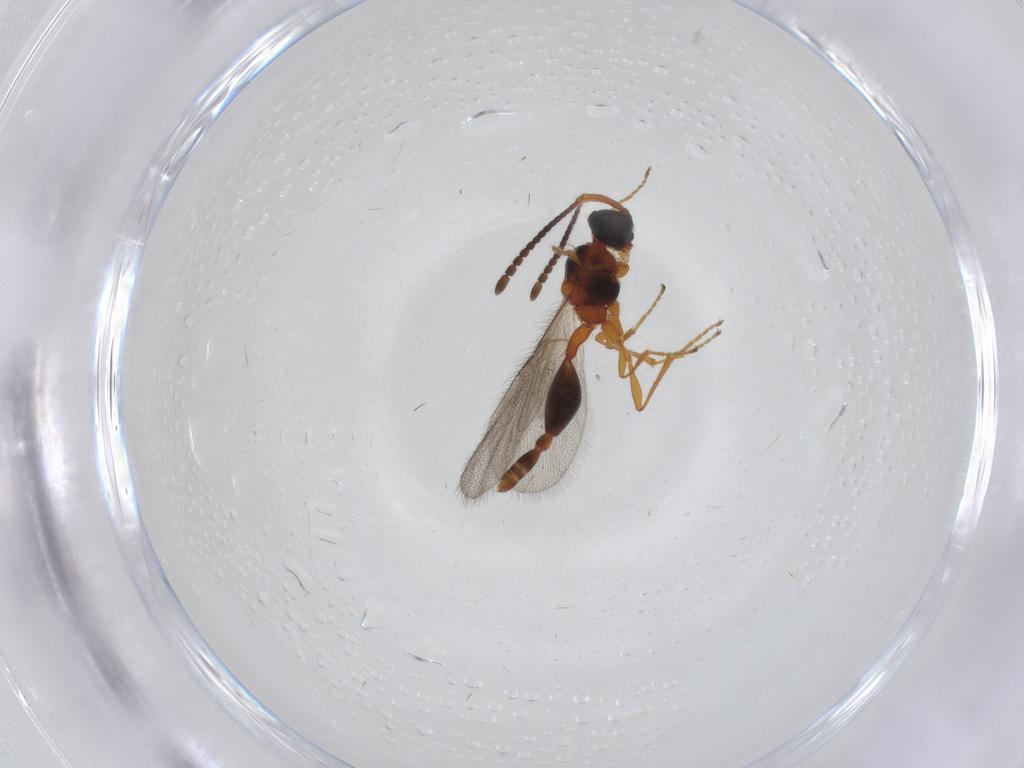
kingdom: Animalia
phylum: Arthropoda
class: Insecta
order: Hymenoptera
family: Diapriidae
